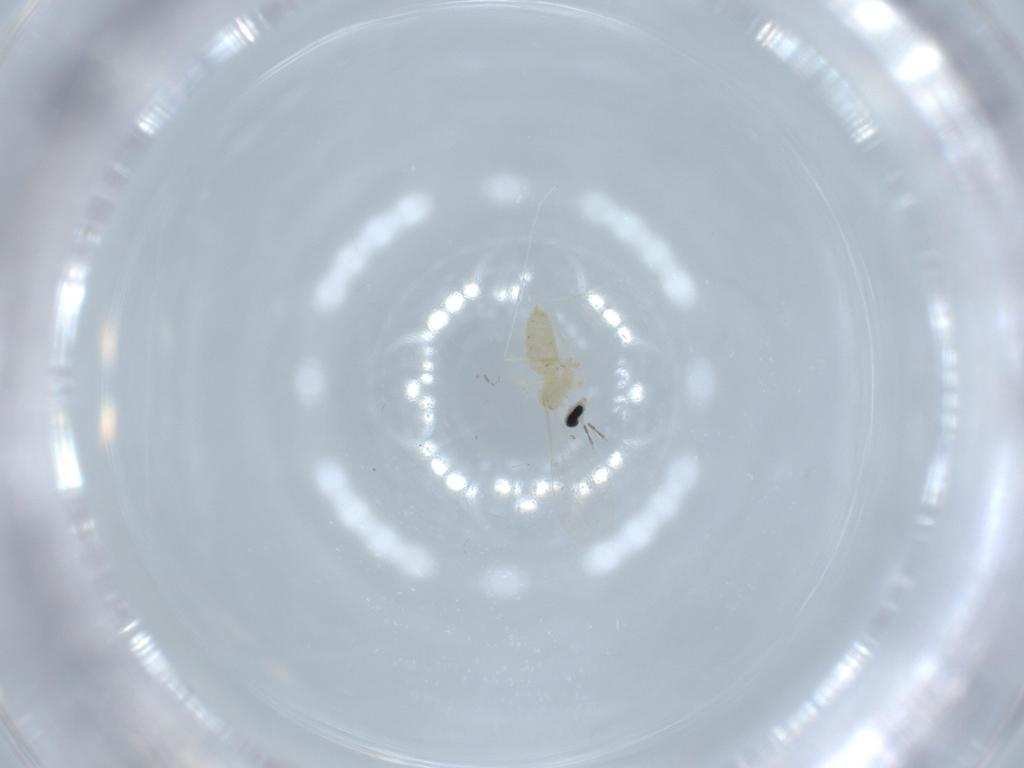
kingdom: Animalia
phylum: Arthropoda
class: Insecta
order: Diptera
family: Cecidomyiidae
